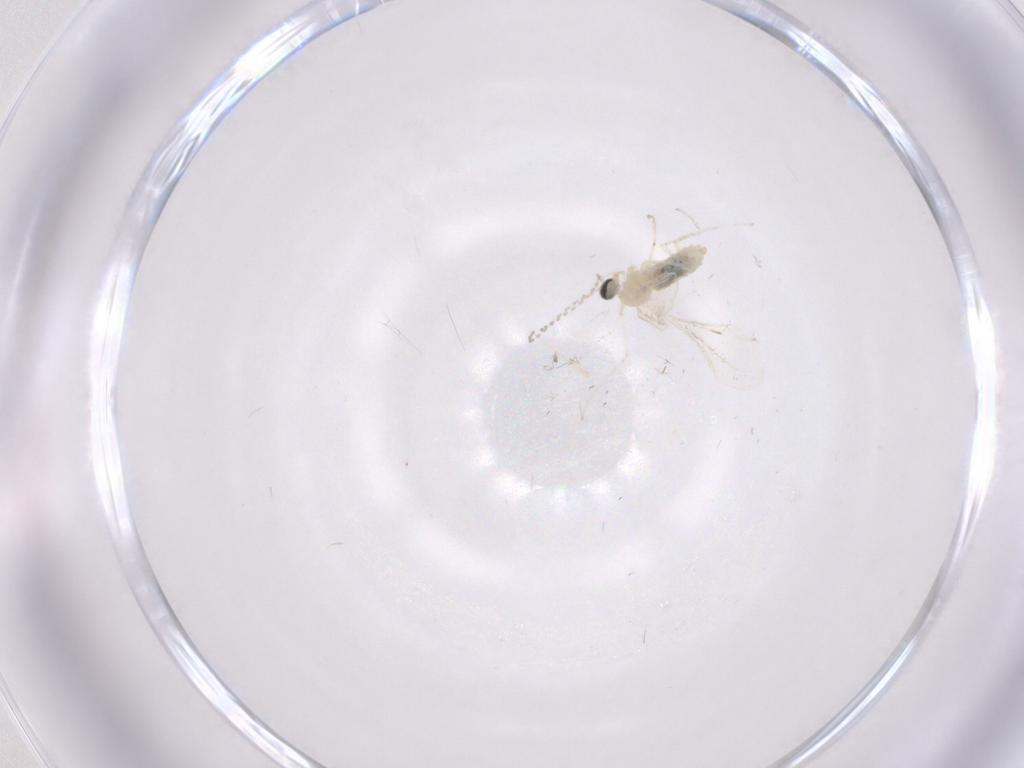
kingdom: Animalia
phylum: Arthropoda
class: Insecta
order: Diptera
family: Cecidomyiidae
